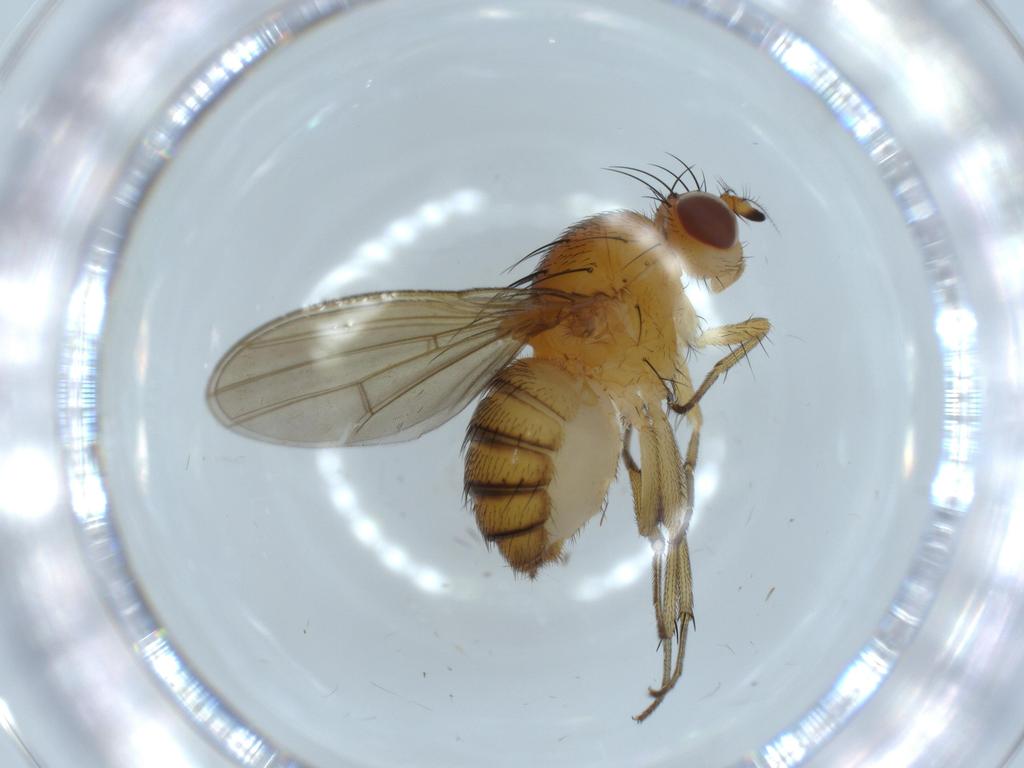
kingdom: Animalia
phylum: Arthropoda
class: Insecta
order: Diptera
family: Lauxaniidae
